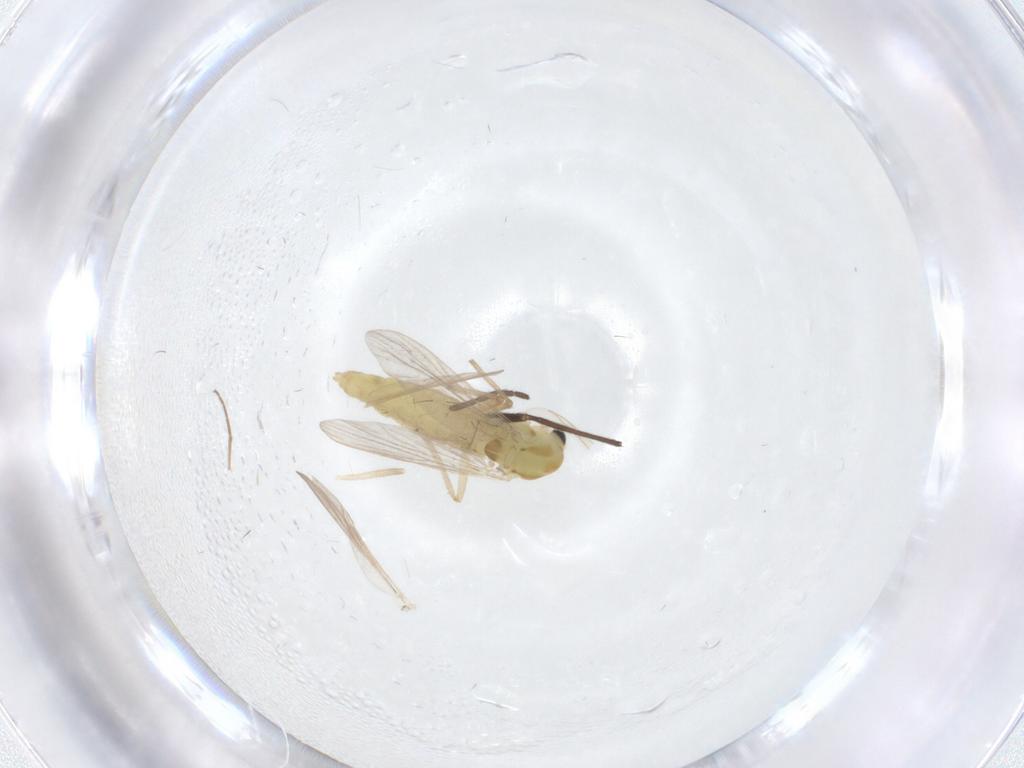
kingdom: Animalia
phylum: Arthropoda
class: Insecta
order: Diptera
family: Chironomidae
